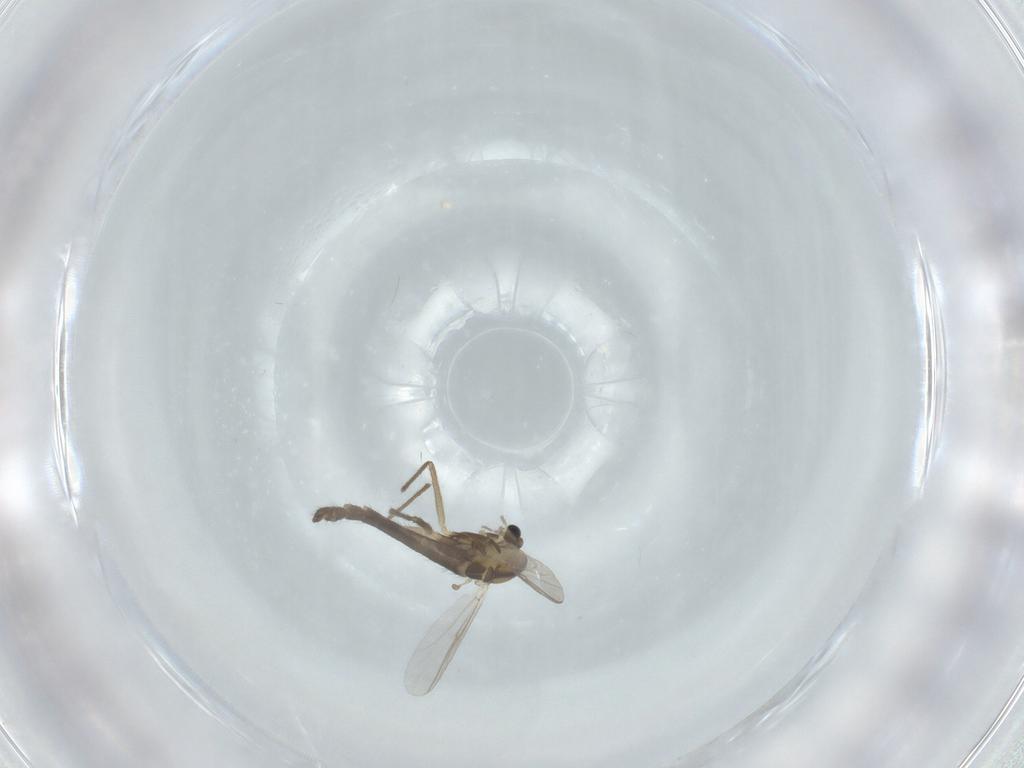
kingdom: Animalia
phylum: Arthropoda
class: Insecta
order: Diptera
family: Chironomidae
